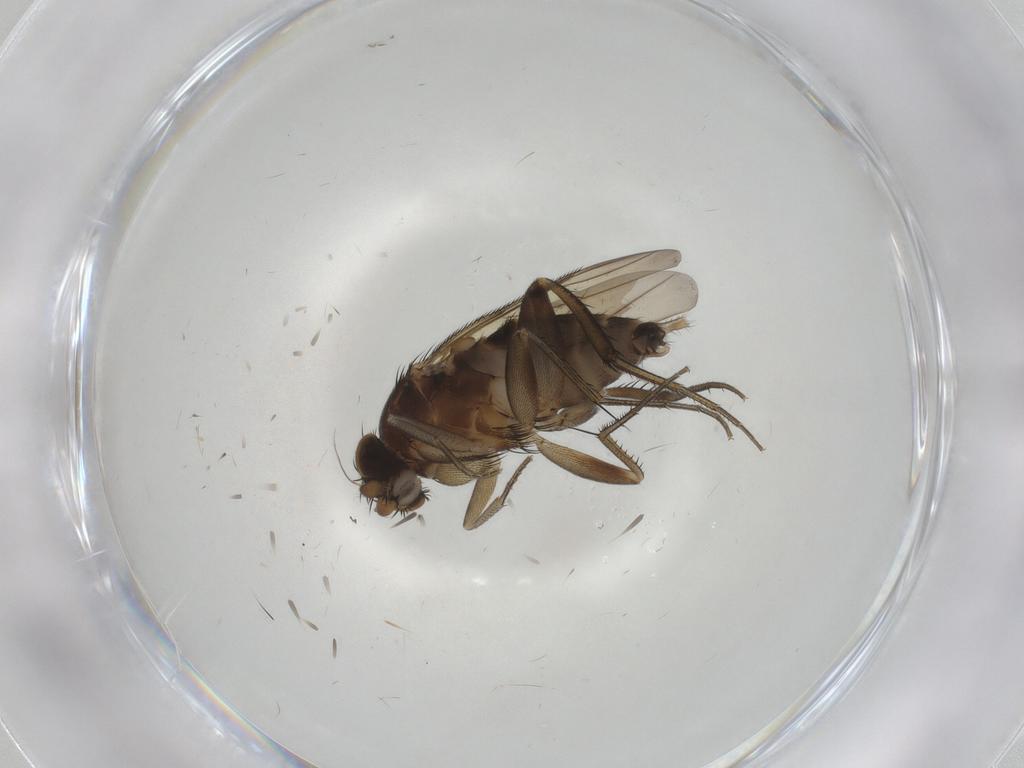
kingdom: Animalia
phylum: Arthropoda
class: Insecta
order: Diptera
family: Phoridae
